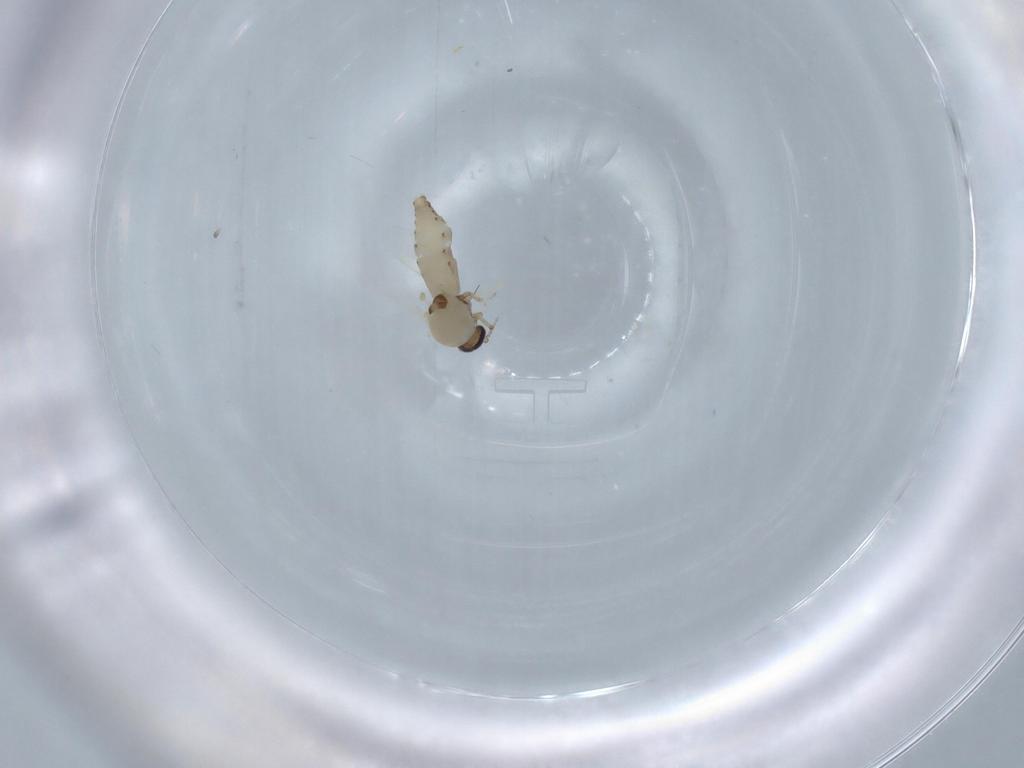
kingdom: Animalia
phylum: Arthropoda
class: Insecta
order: Diptera
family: Ceratopogonidae
